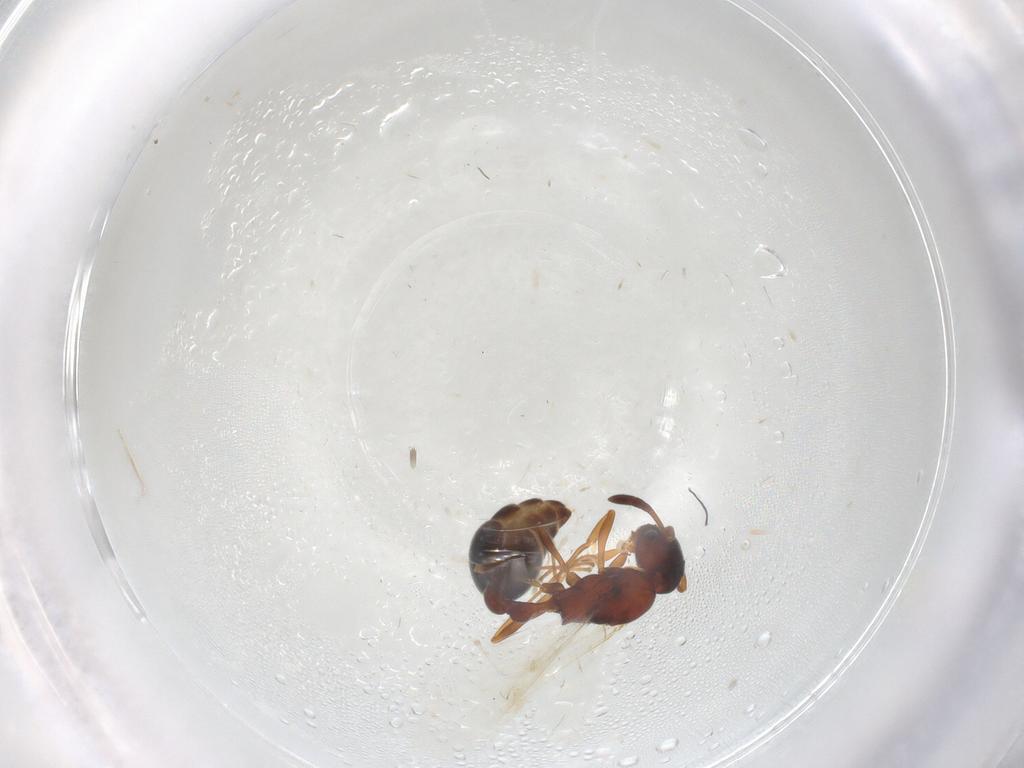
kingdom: Animalia
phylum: Arthropoda
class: Insecta
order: Hymenoptera
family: Formicidae
